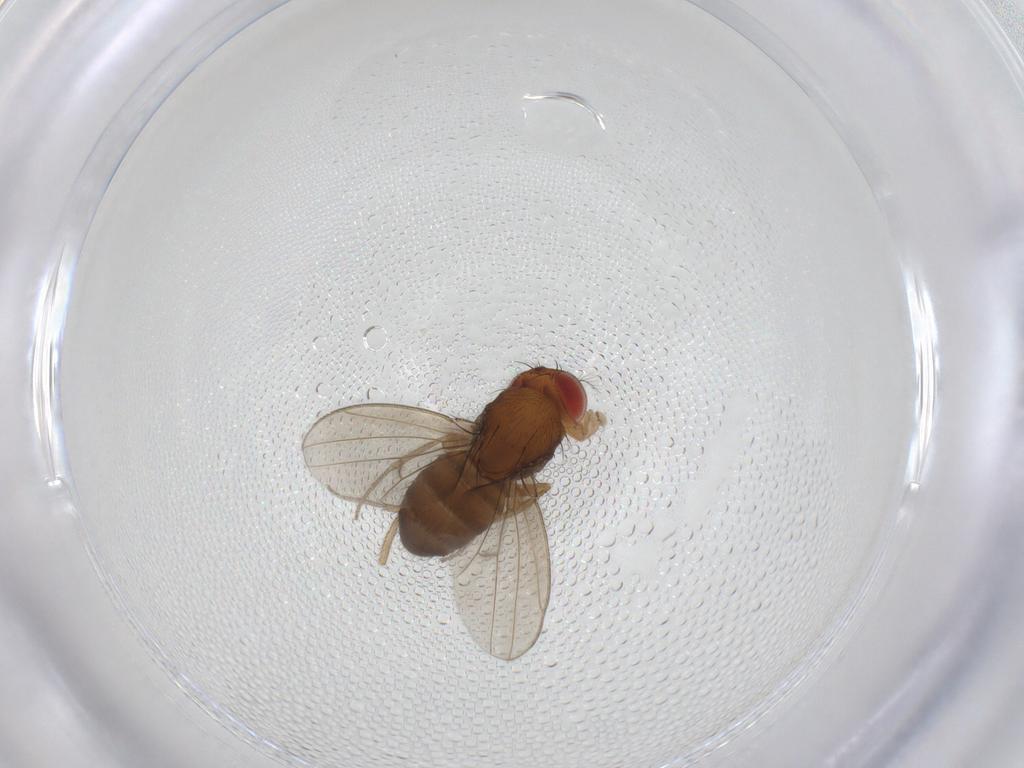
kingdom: Animalia
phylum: Arthropoda
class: Insecta
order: Diptera
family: Drosophilidae
